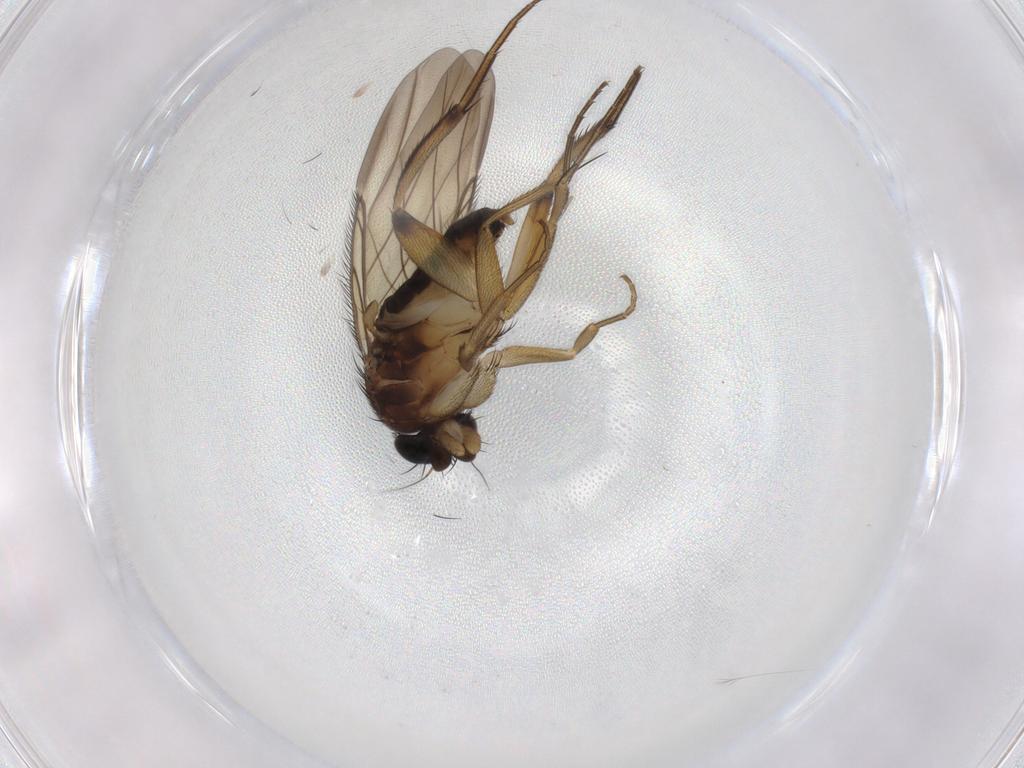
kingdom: Animalia
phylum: Arthropoda
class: Insecta
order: Diptera
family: Phoridae
